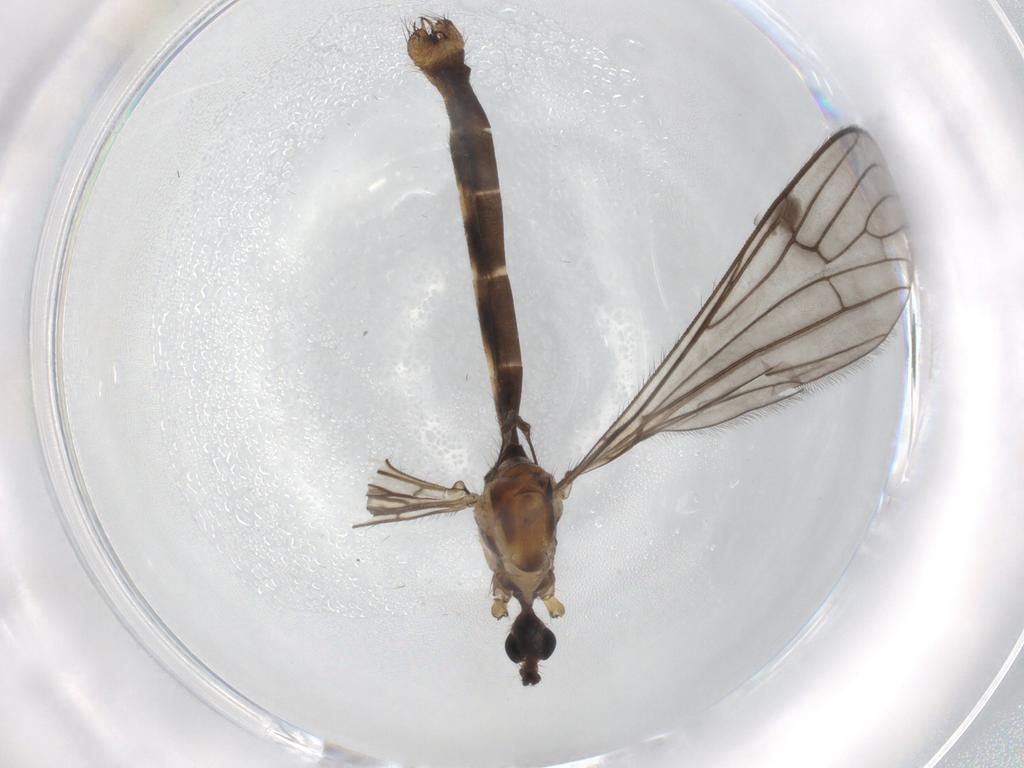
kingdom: Animalia
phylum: Arthropoda
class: Insecta
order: Diptera
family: Limoniidae
